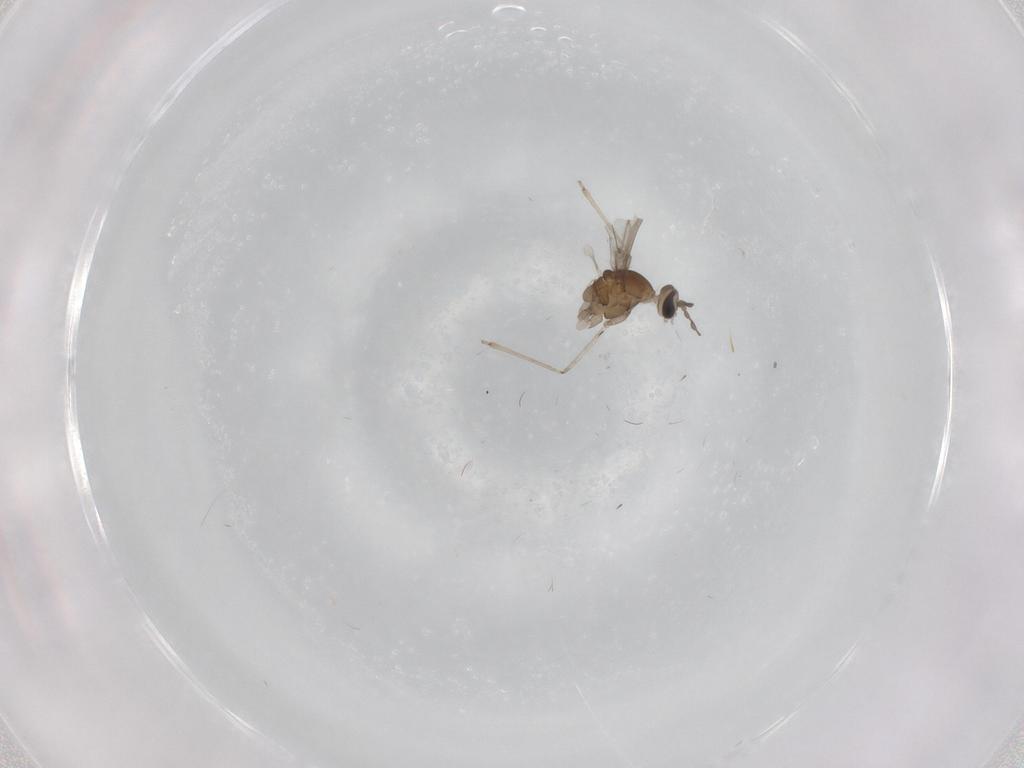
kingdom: Animalia
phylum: Arthropoda
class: Insecta
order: Diptera
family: Cecidomyiidae
